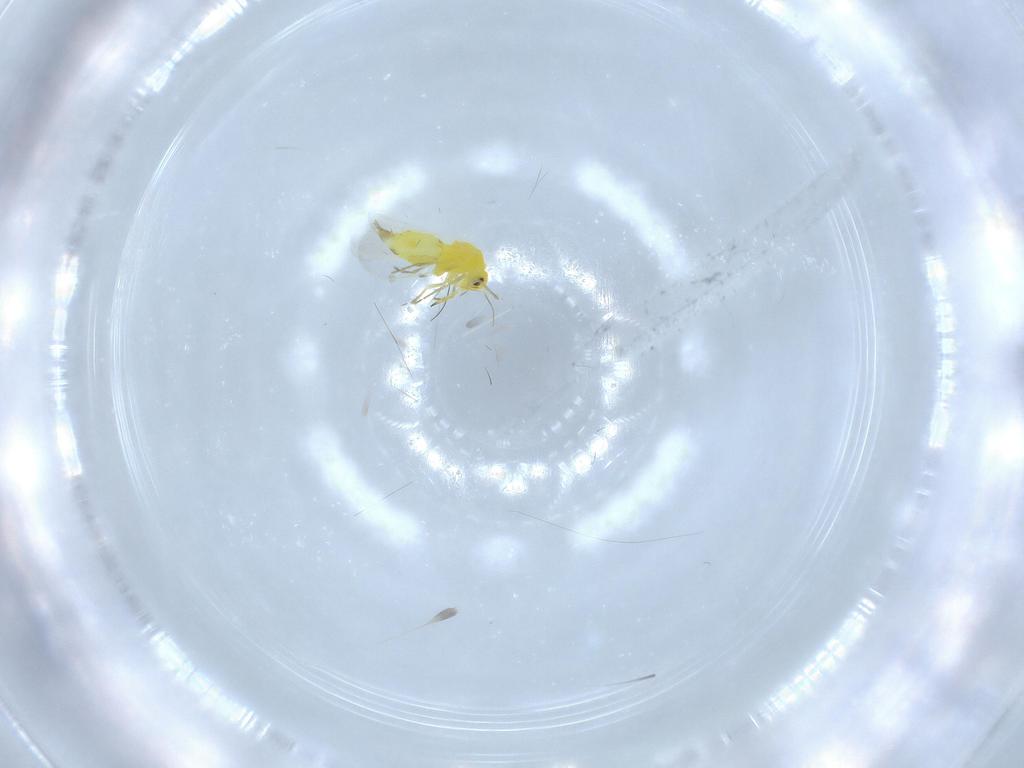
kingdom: Animalia
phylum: Arthropoda
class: Insecta
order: Hemiptera
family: Aleyrodidae
